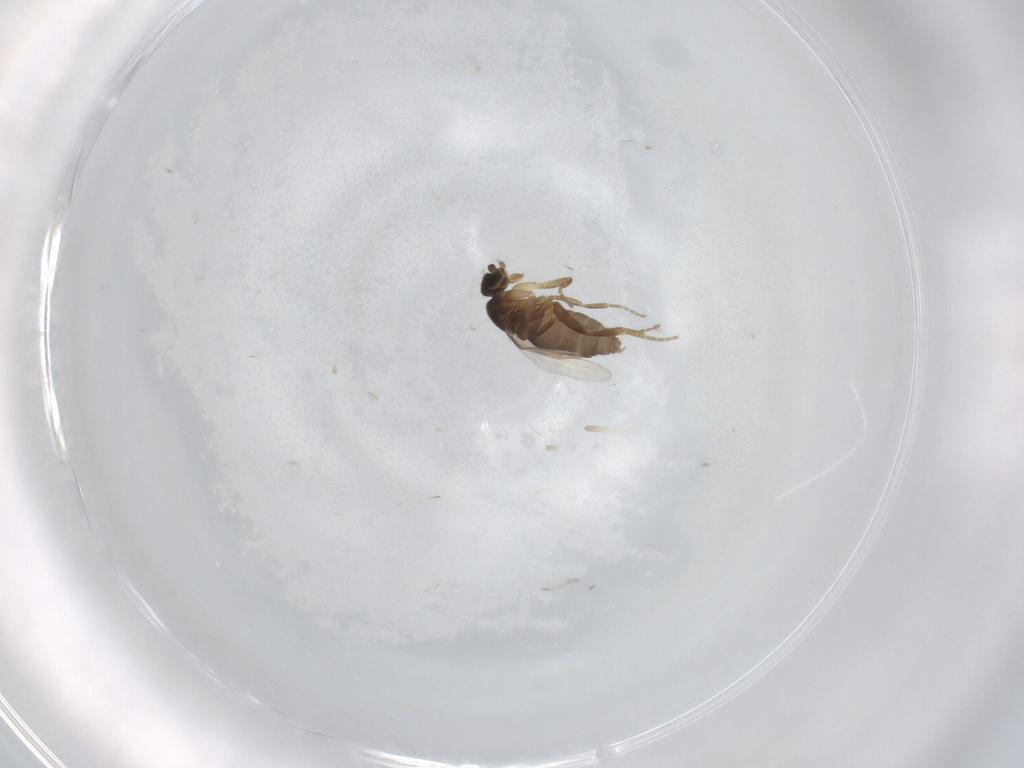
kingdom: Animalia
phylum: Arthropoda
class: Insecta
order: Diptera
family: Phoridae
